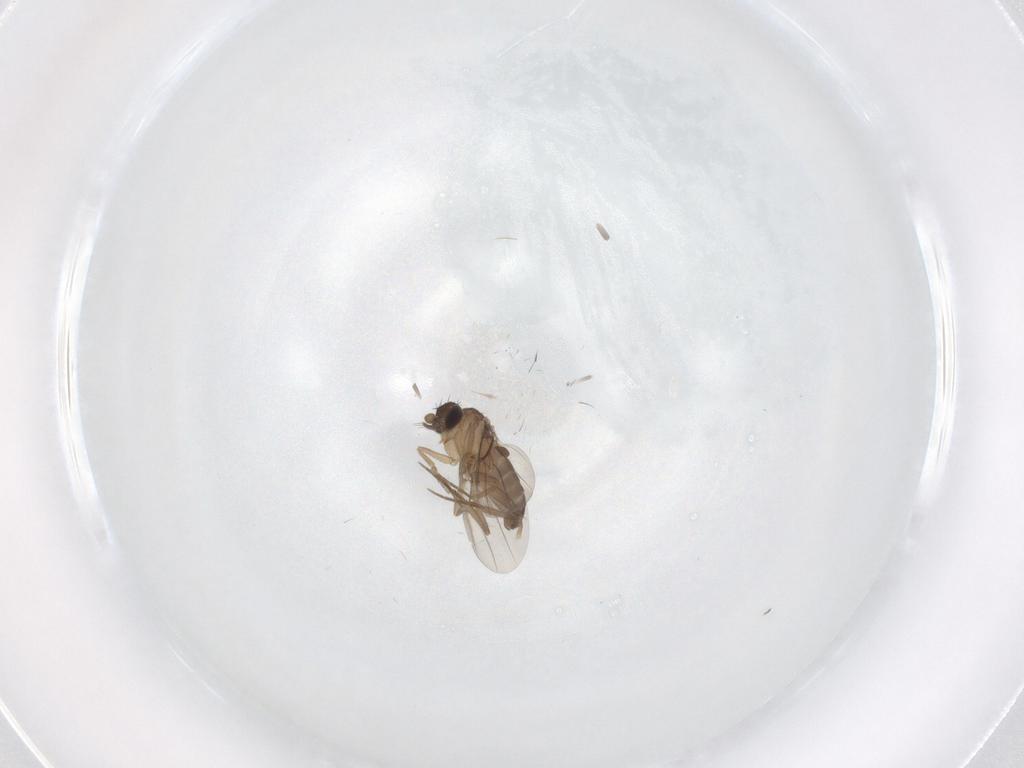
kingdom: Animalia
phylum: Arthropoda
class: Insecta
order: Diptera
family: Phoridae
